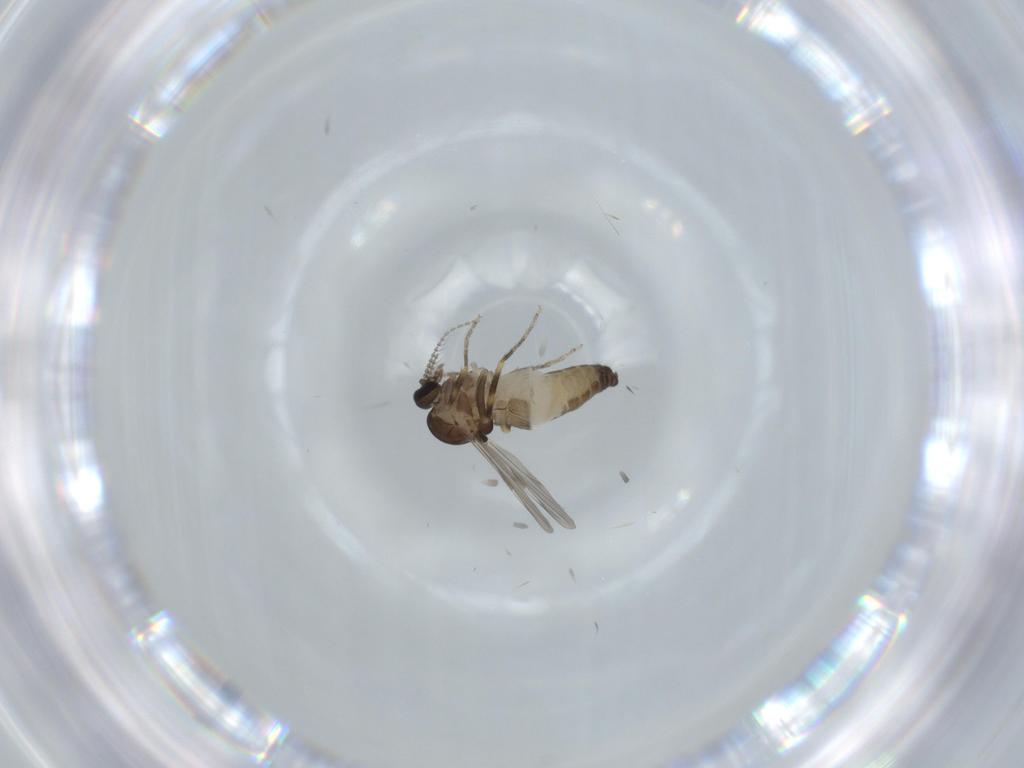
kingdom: Animalia
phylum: Arthropoda
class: Insecta
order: Diptera
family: Ceratopogonidae
